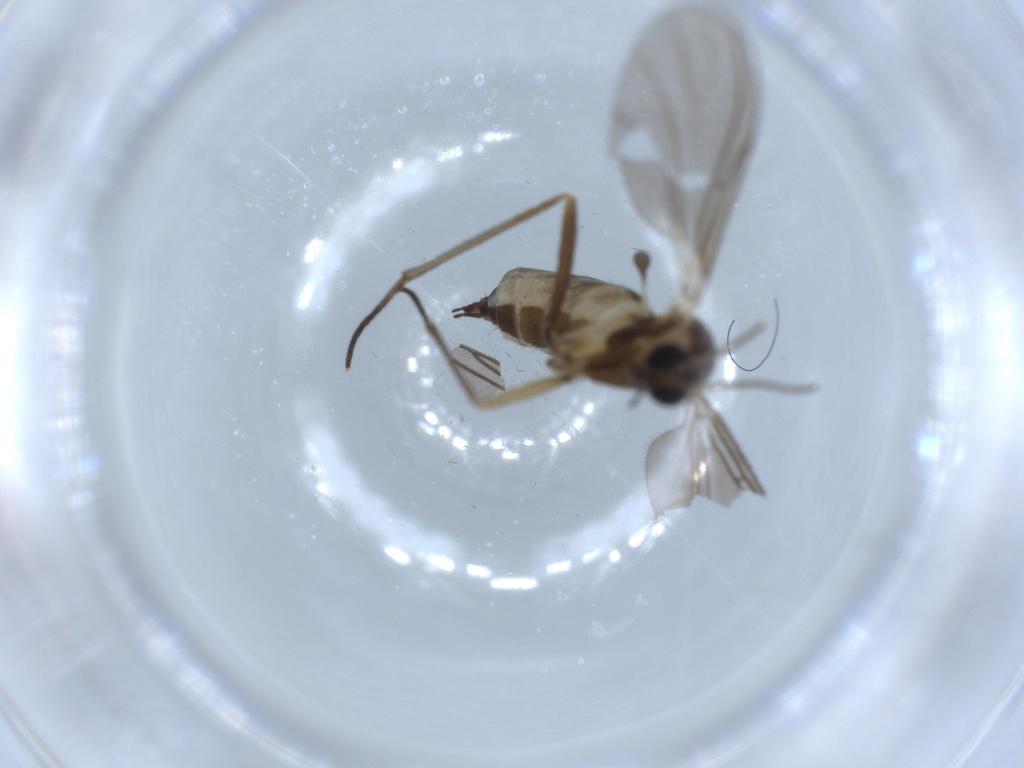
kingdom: Animalia
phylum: Arthropoda
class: Insecta
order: Diptera
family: Sciaridae
